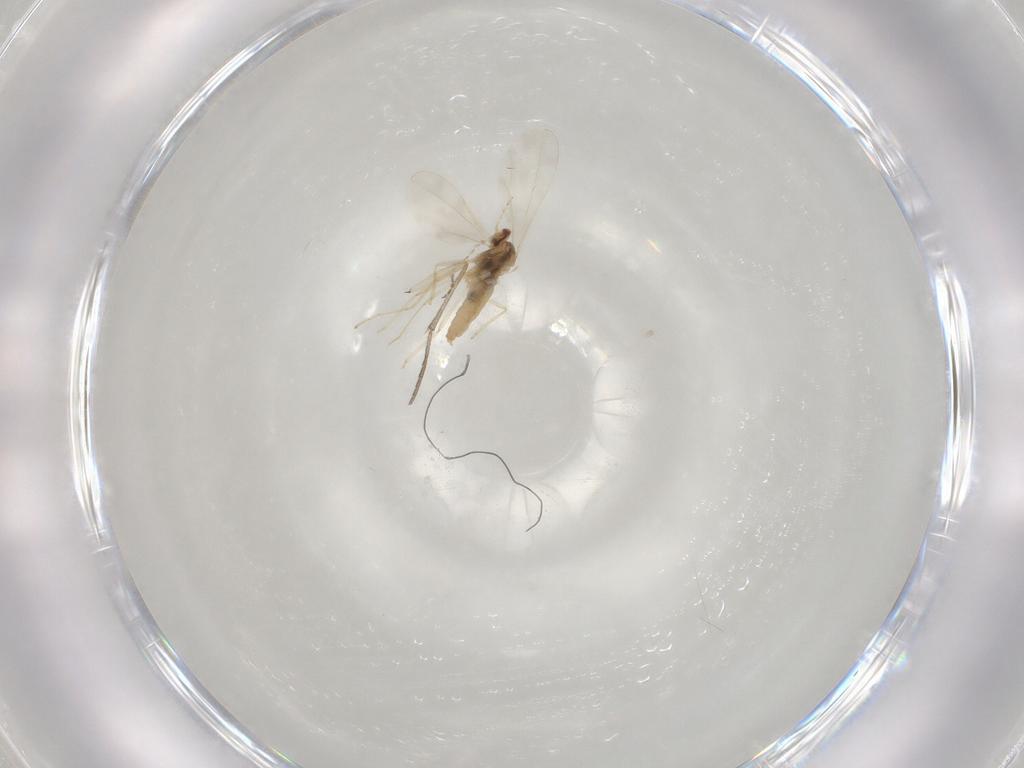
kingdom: Animalia
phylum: Arthropoda
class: Insecta
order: Diptera
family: Cecidomyiidae
